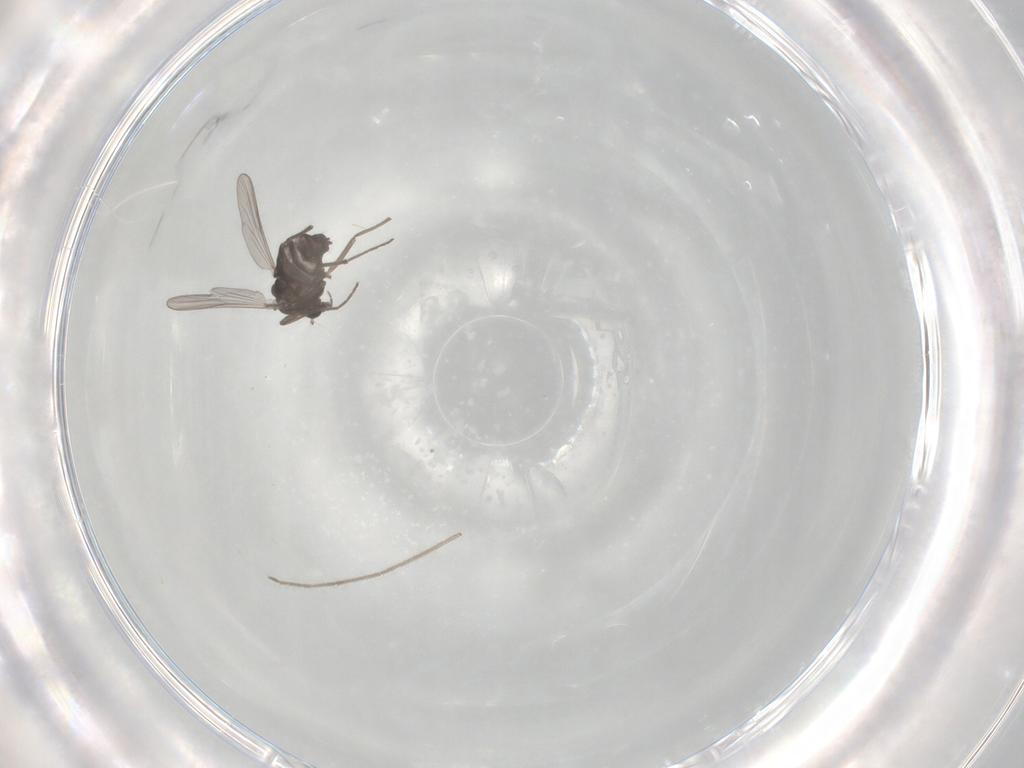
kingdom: Animalia
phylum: Arthropoda
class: Insecta
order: Diptera
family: Chironomidae
